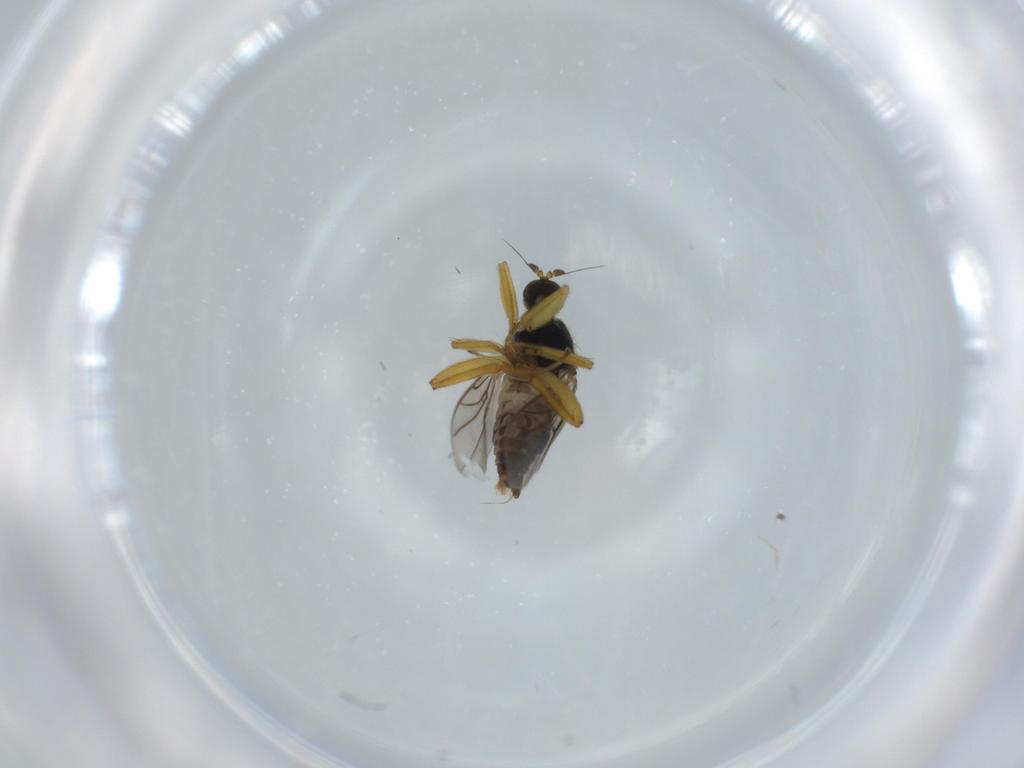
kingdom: Animalia
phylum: Arthropoda
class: Insecta
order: Diptera
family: Hybotidae
